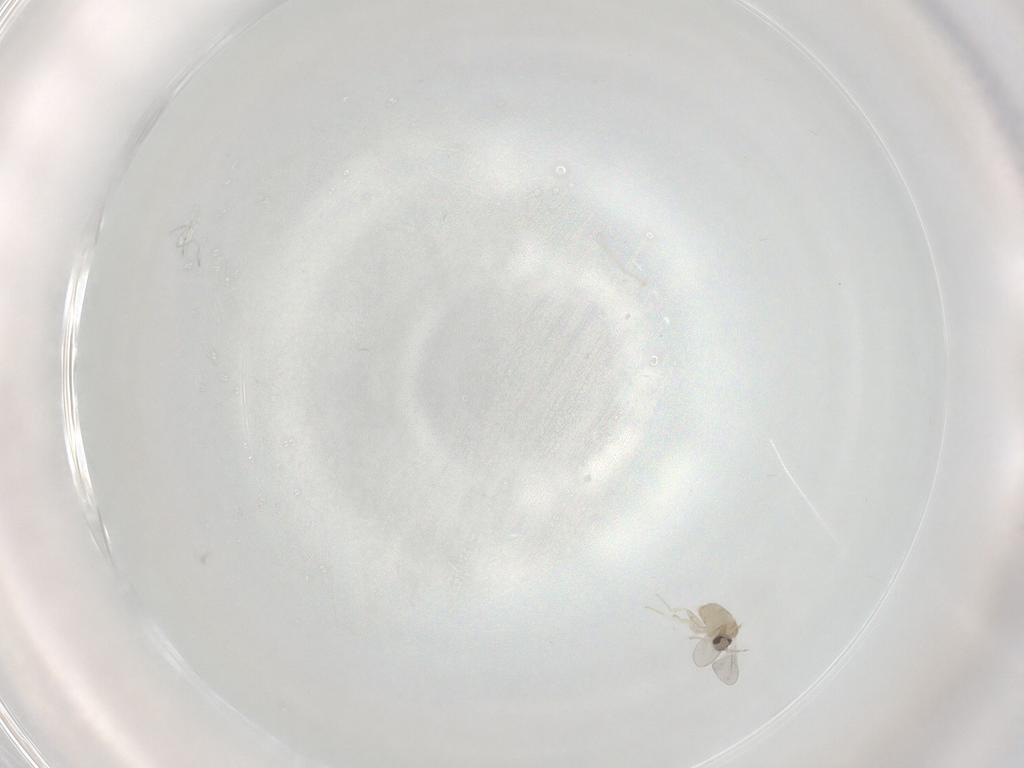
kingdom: Animalia
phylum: Arthropoda
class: Insecta
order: Diptera
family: Cecidomyiidae
